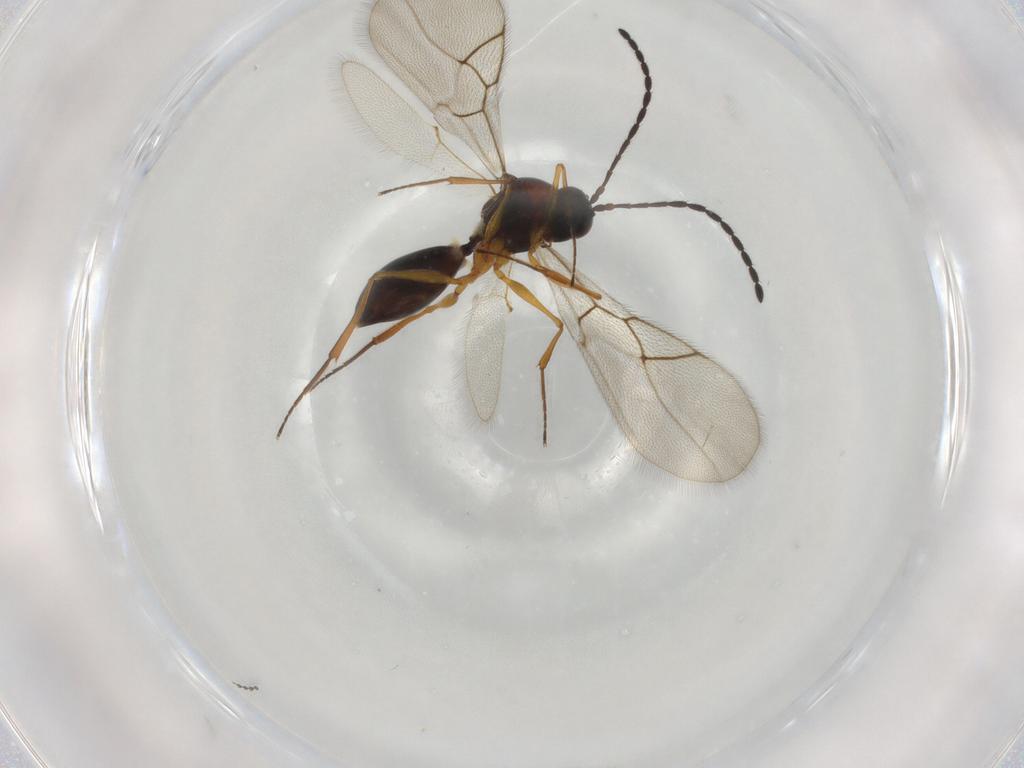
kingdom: Animalia
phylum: Arthropoda
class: Insecta
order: Hymenoptera
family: Figitidae
